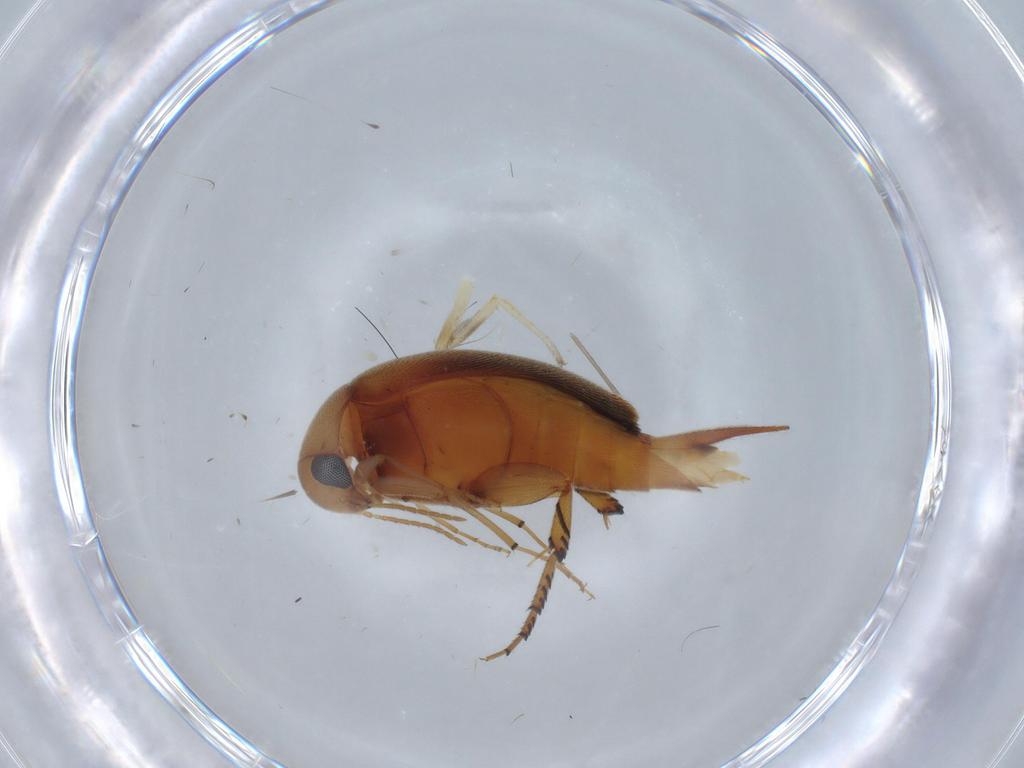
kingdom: Animalia
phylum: Arthropoda
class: Insecta
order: Coleoptera
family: Mordellidae
